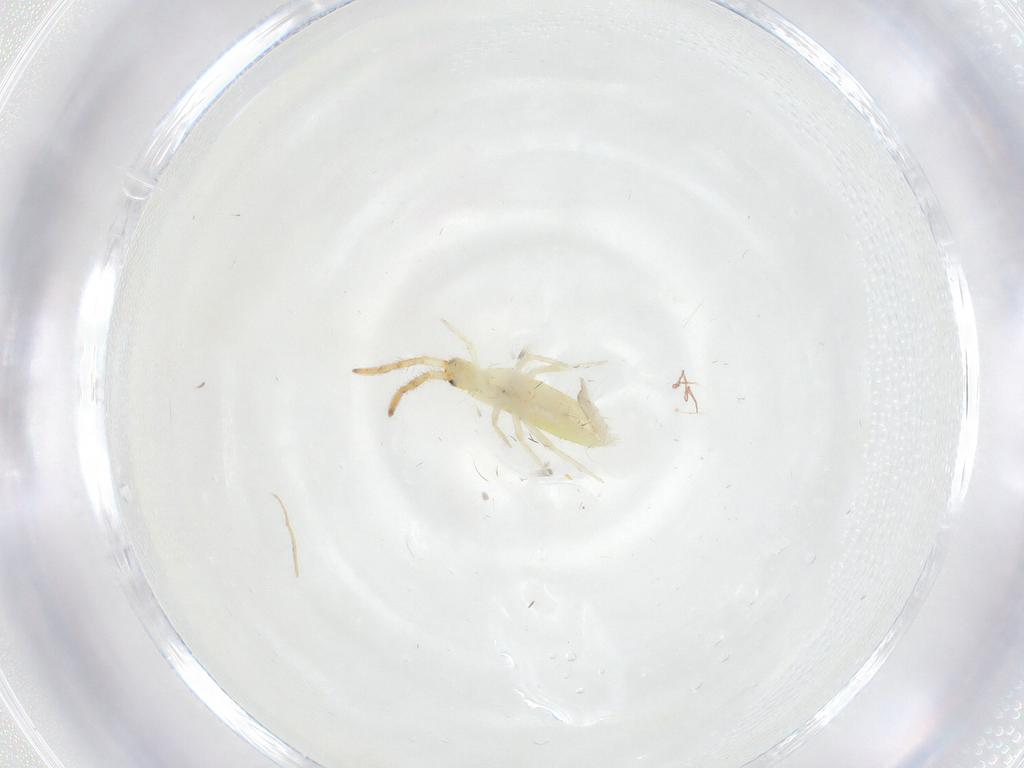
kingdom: Animalia
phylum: Arthropoda
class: Collembola
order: Entomobryomorpha
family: Entomobryidae
